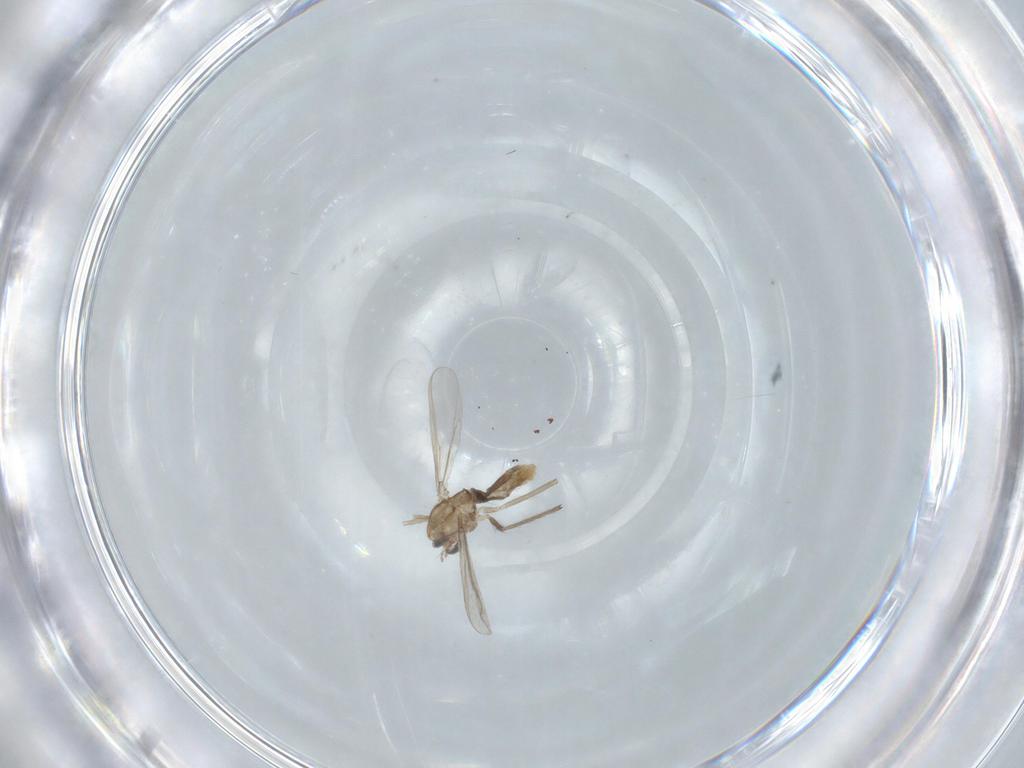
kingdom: Animalia
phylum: Arthropoda
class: Insecta
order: Diptera
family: Chironomidae
